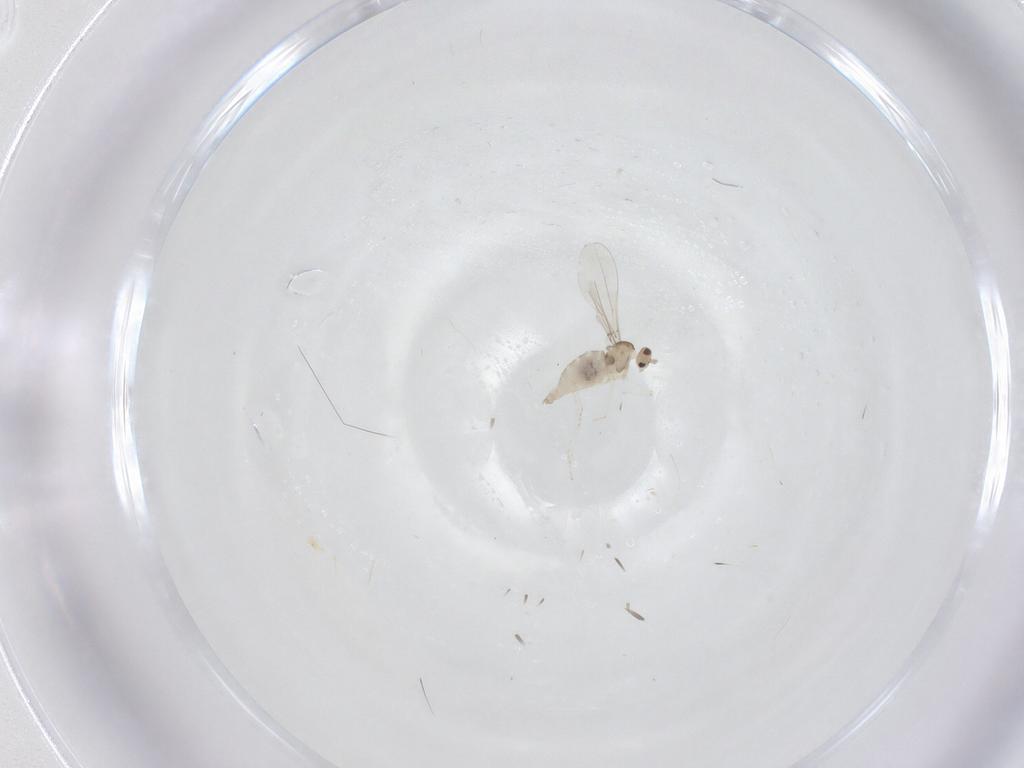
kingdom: Animalia
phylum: Arthropoda
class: Insecta
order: Diptera
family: Cecidomyiidae
